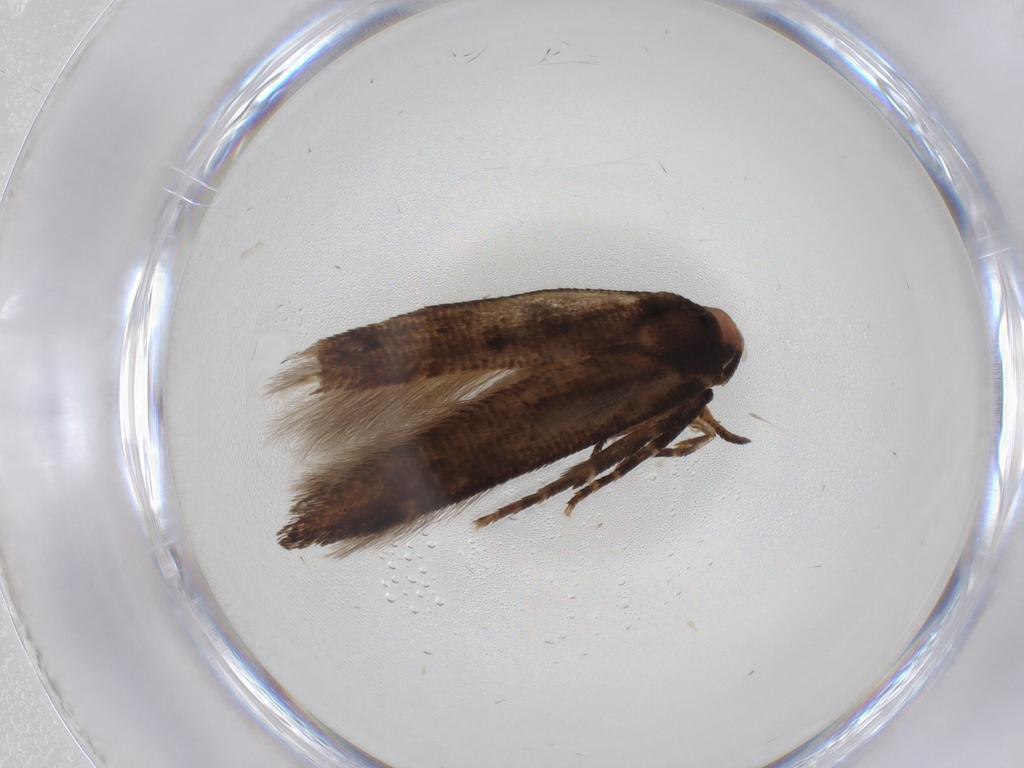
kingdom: Animalia
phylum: Arthropoda
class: Insecta
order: Lepidoptera
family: Cosmopterigidae
